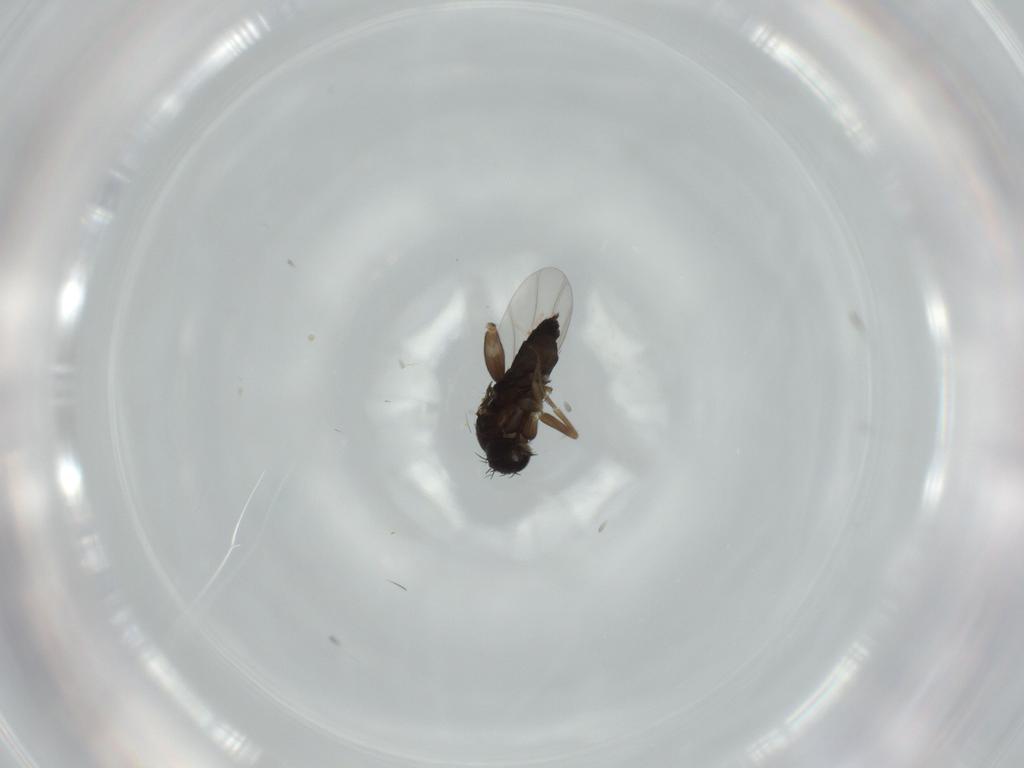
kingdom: Animalia
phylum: Arthropoda
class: Insecta
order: Diptera
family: Phoridae
